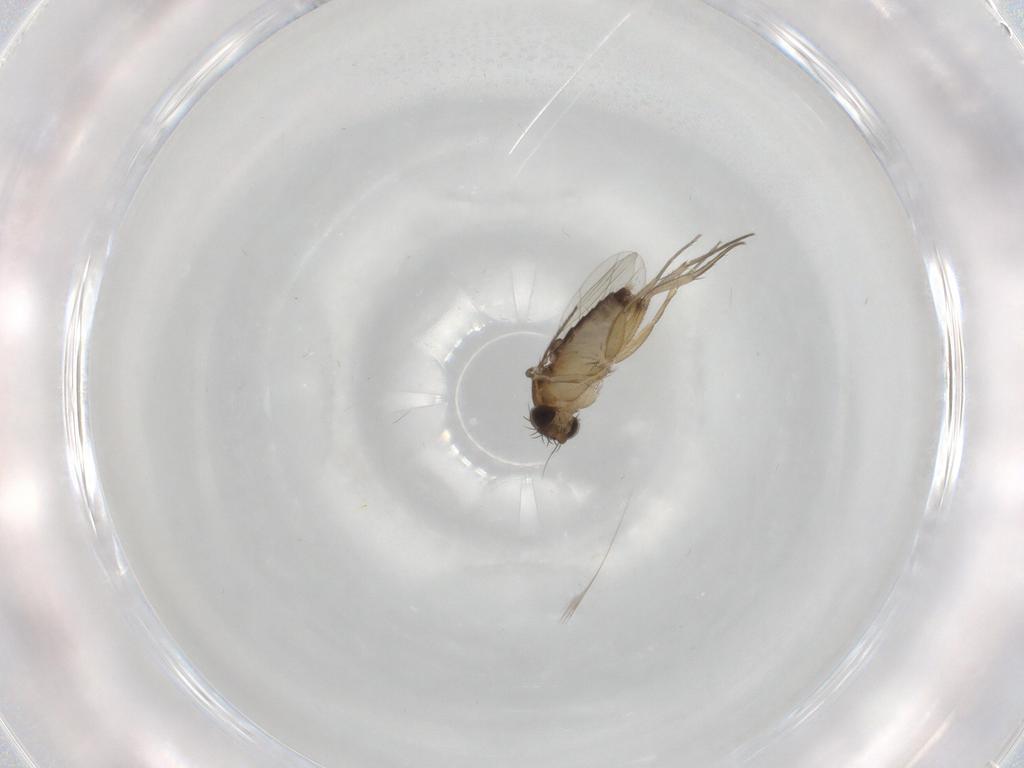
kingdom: Animalia
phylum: Arthropoda
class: Insecta
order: Diptera
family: Phoridae
